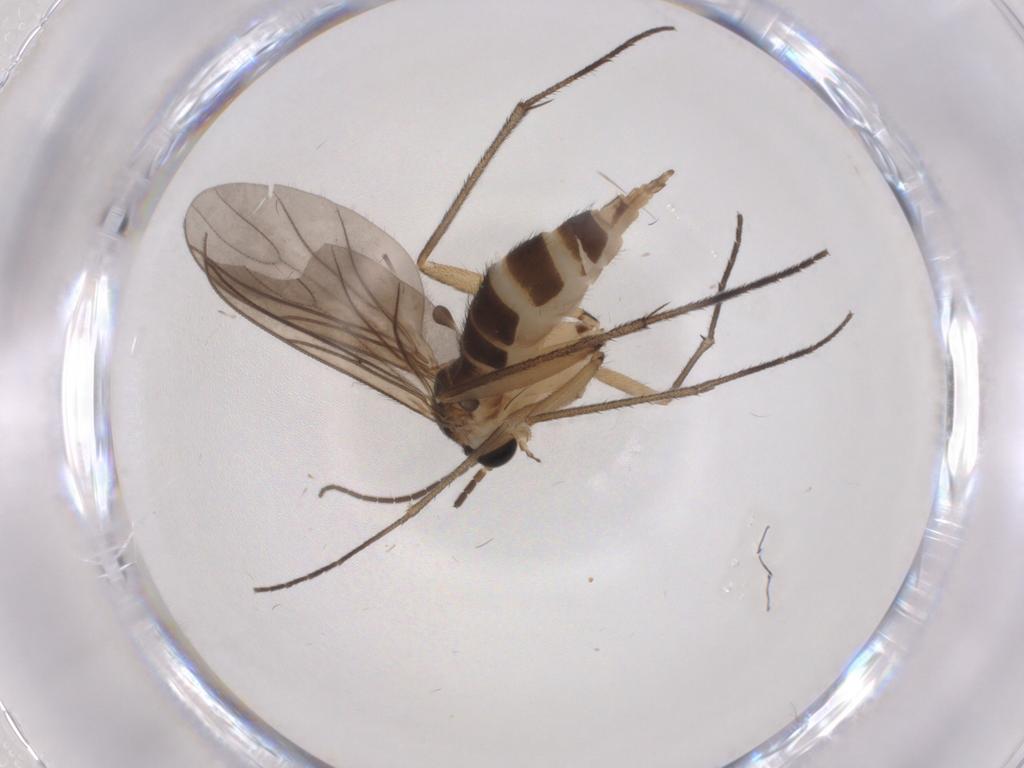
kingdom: Animalia
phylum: Arthropoda
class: Insecta
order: Diptera
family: Sciaridae
